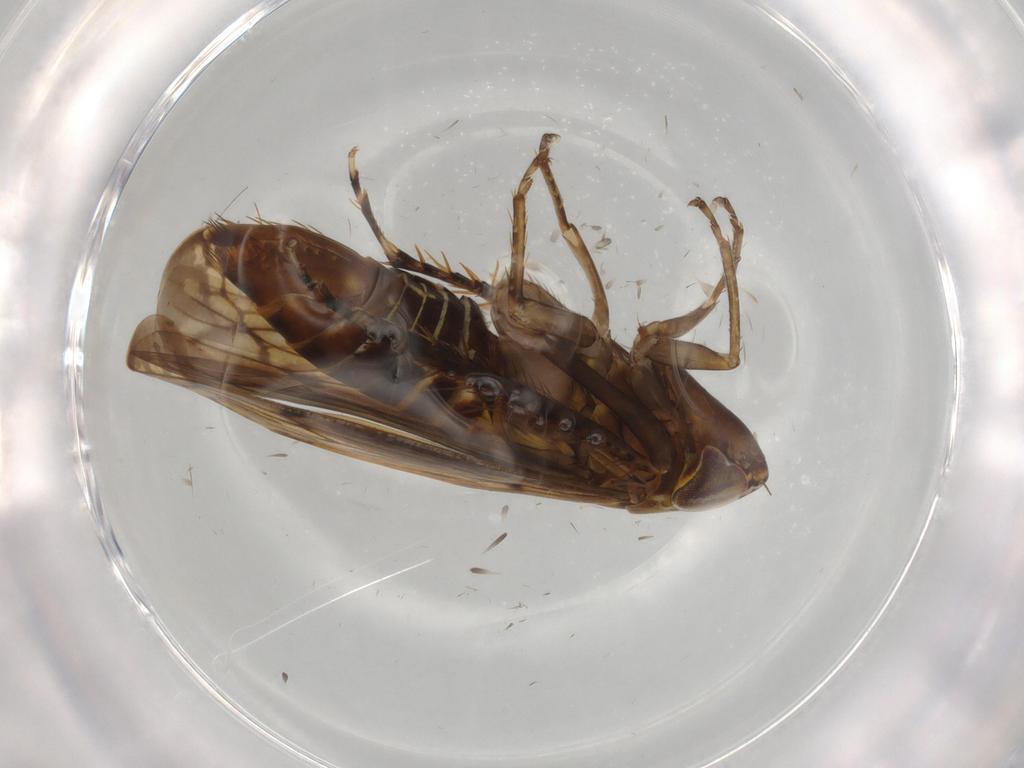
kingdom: Animalia
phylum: Arthropoda
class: Insecta
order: Hemiptera
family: Cicadellidae
